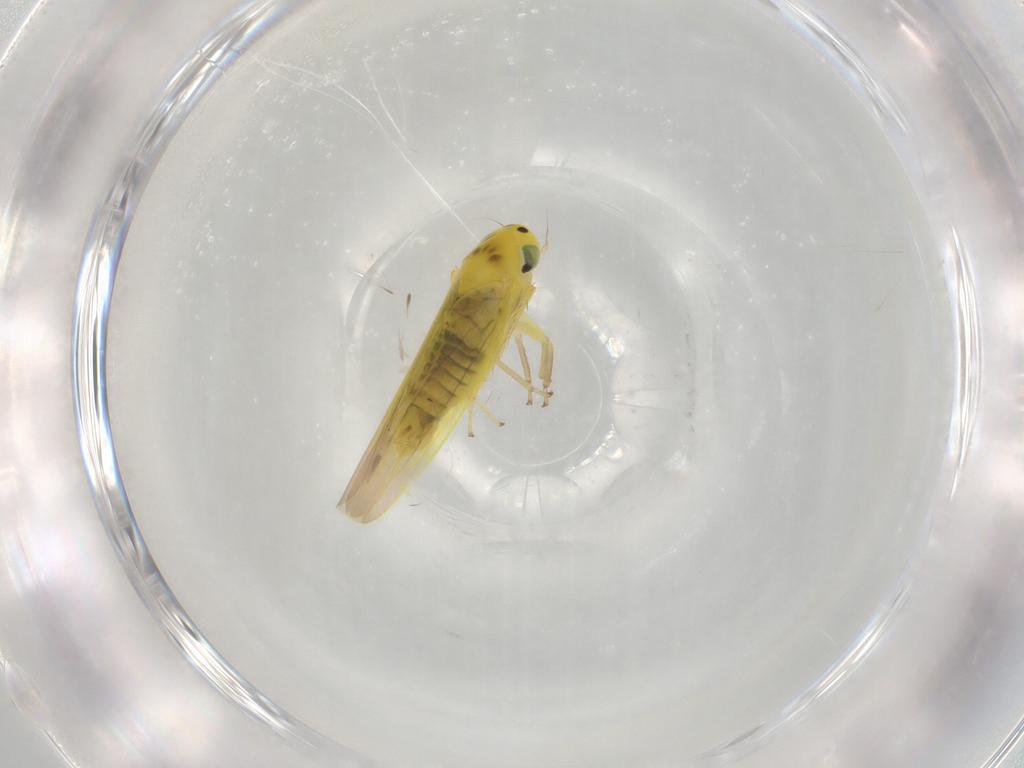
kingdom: Animalia
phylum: Arthropoda
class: Insecta
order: Hemiptera
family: Cicadellidae
